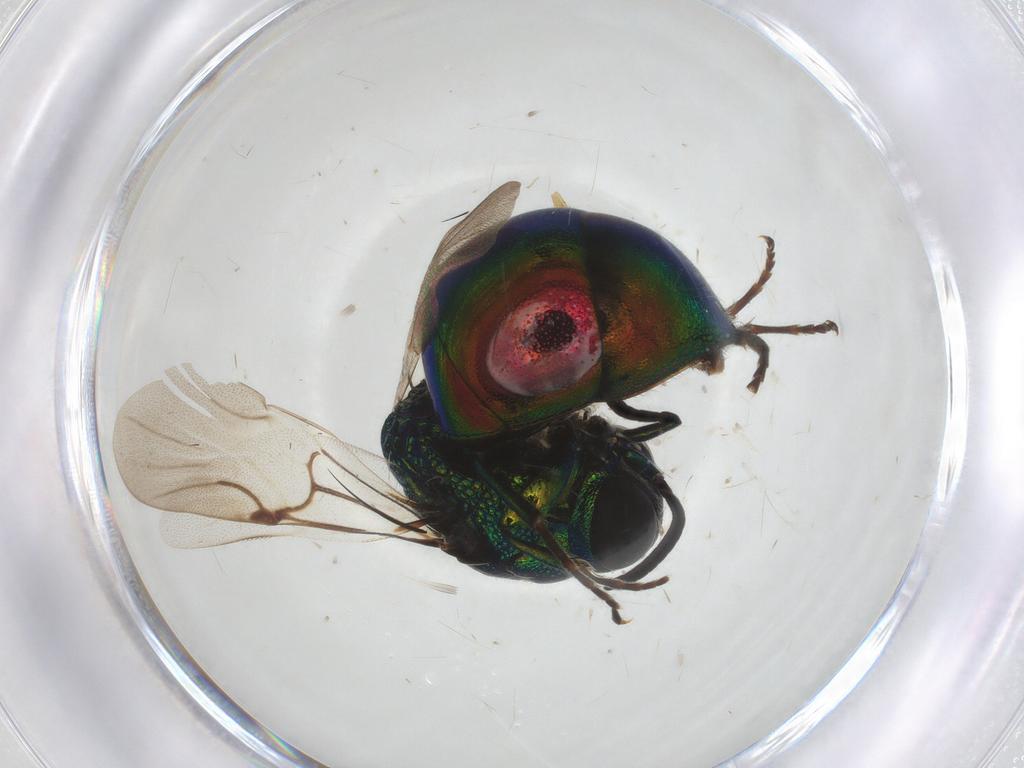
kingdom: Animalia
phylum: Arthropoda
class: Insecta
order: Hymenoptera
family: Chrysididae
